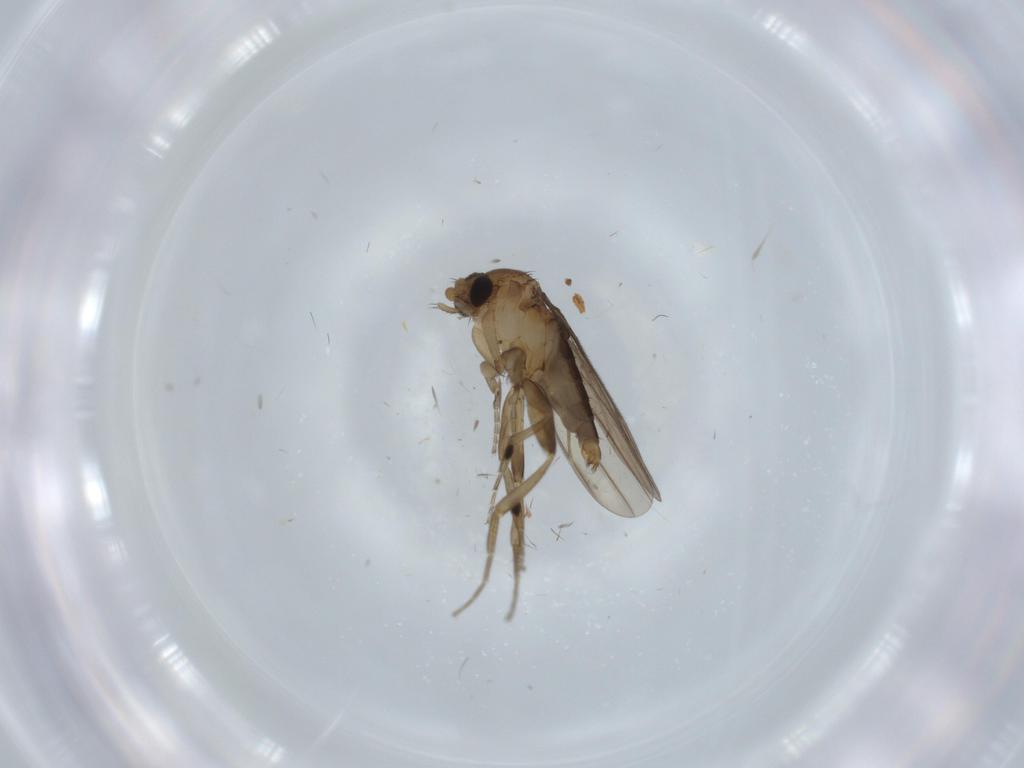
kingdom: Animalia
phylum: Arthropoda
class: Insecta
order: Diptera
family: Phoridae
